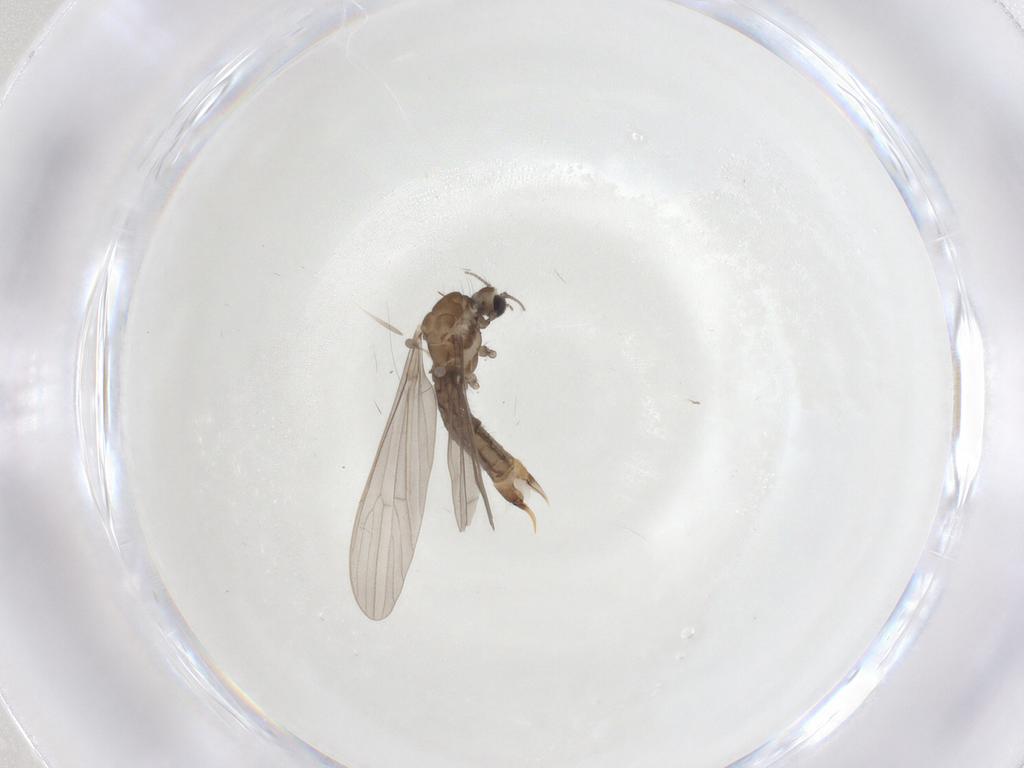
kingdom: Animalia
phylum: Arthropoda
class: Insecta
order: Diptera
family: Limoniidae
